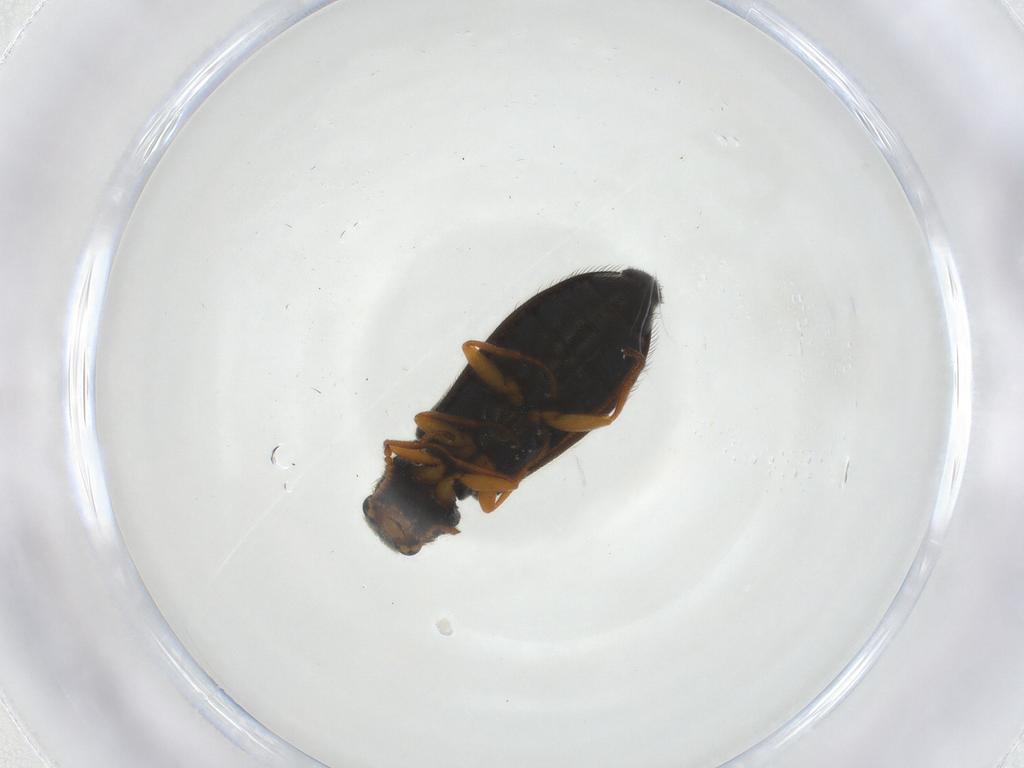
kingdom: Animalia
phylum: Arthropoda
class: Insecta
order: Coleoptera
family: Melyridae
